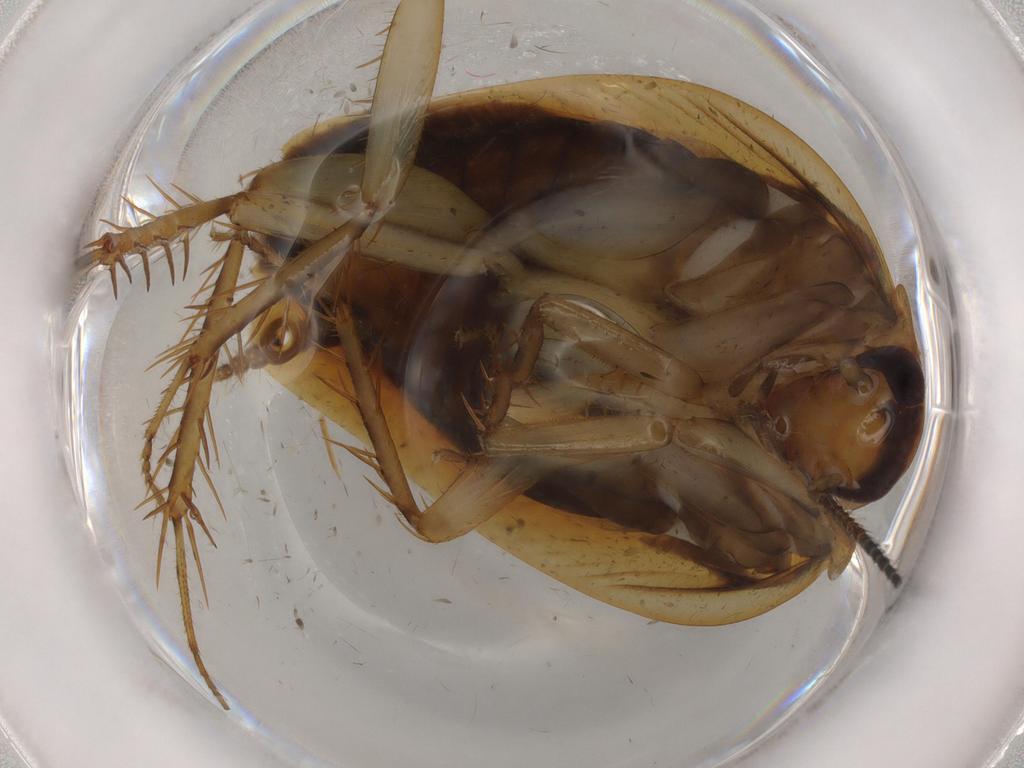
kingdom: Animalia
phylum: Arthropoda
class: Insecta
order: Blattodea
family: Ectobiidae
